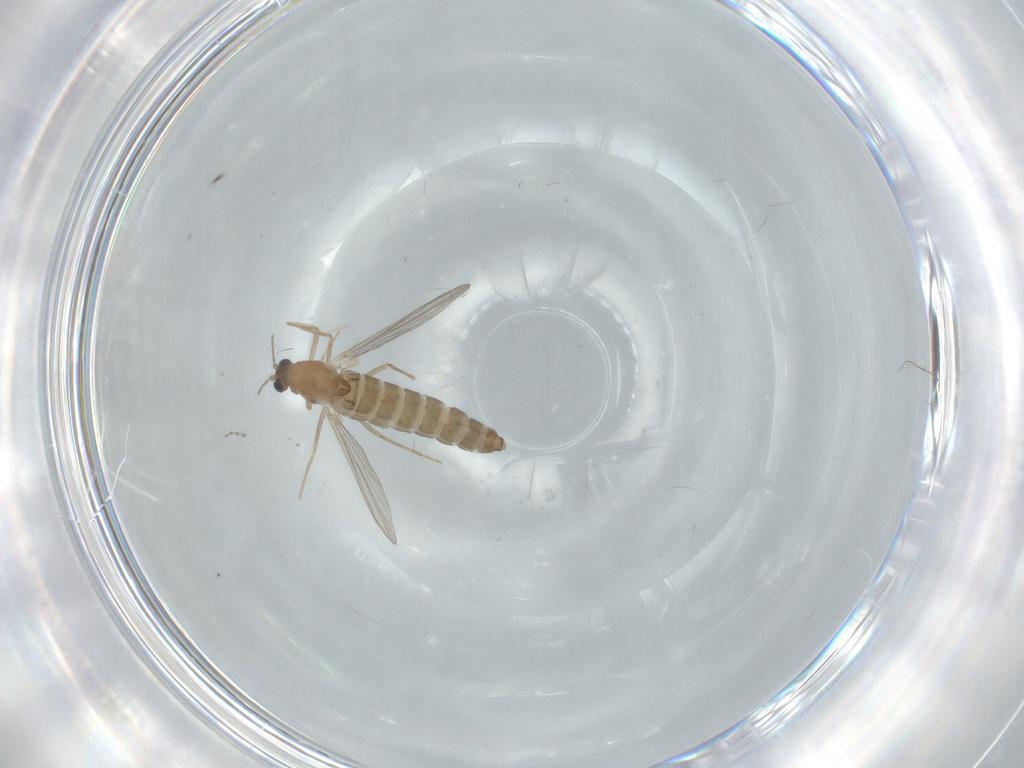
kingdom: Animalia
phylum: Arthropoda
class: Insecta
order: Diptera
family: Chironomidae
